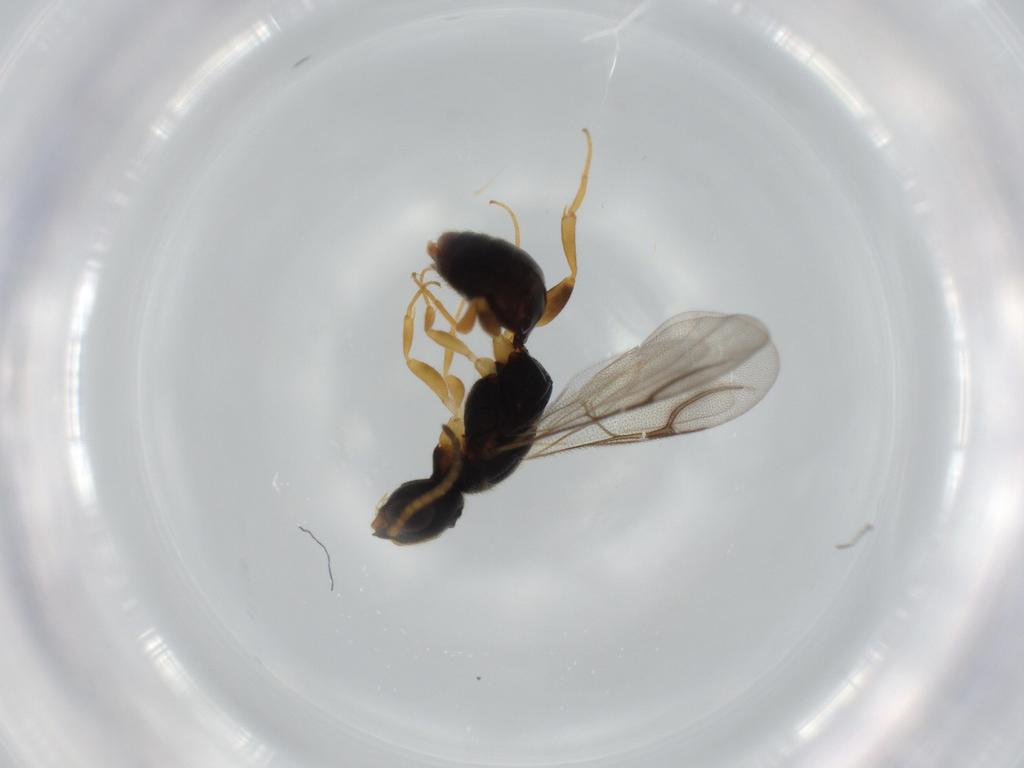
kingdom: Animalia
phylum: Arthropoda
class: Insecta
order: Hymenoptera
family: Bethylidae
